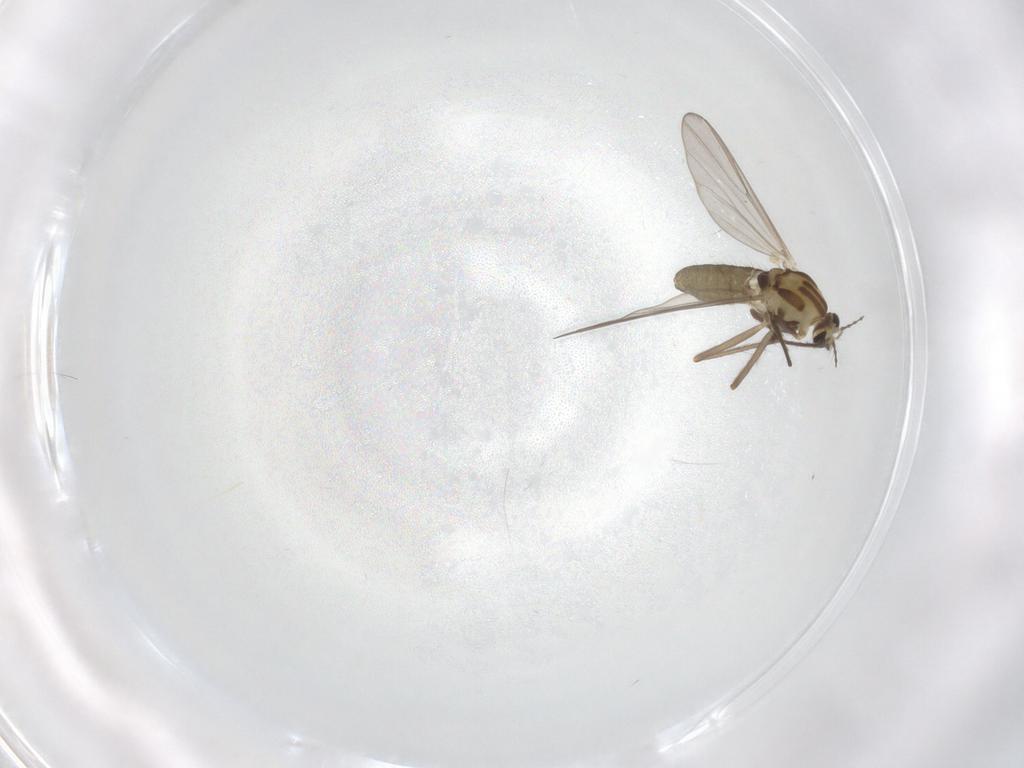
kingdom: Animalia
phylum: Arthropoda
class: Insecta
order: Diptera
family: Chironomidae
